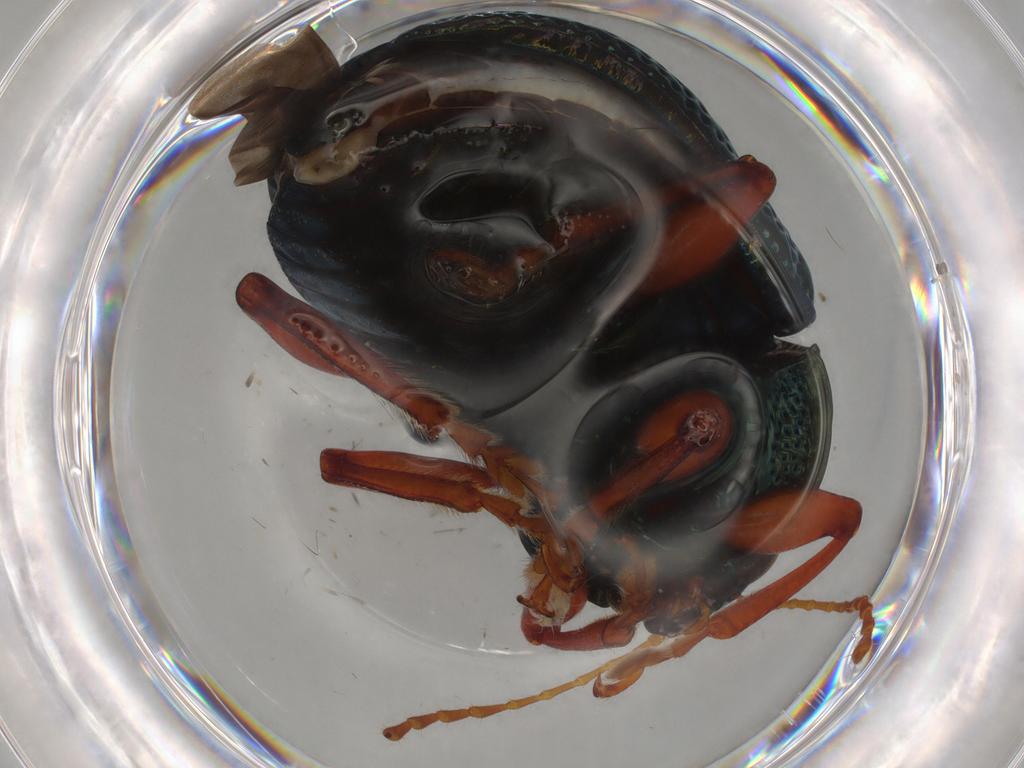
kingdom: Animalia
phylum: Arthropoda
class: Insecta
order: Coleoptera
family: Chrysomelidae
